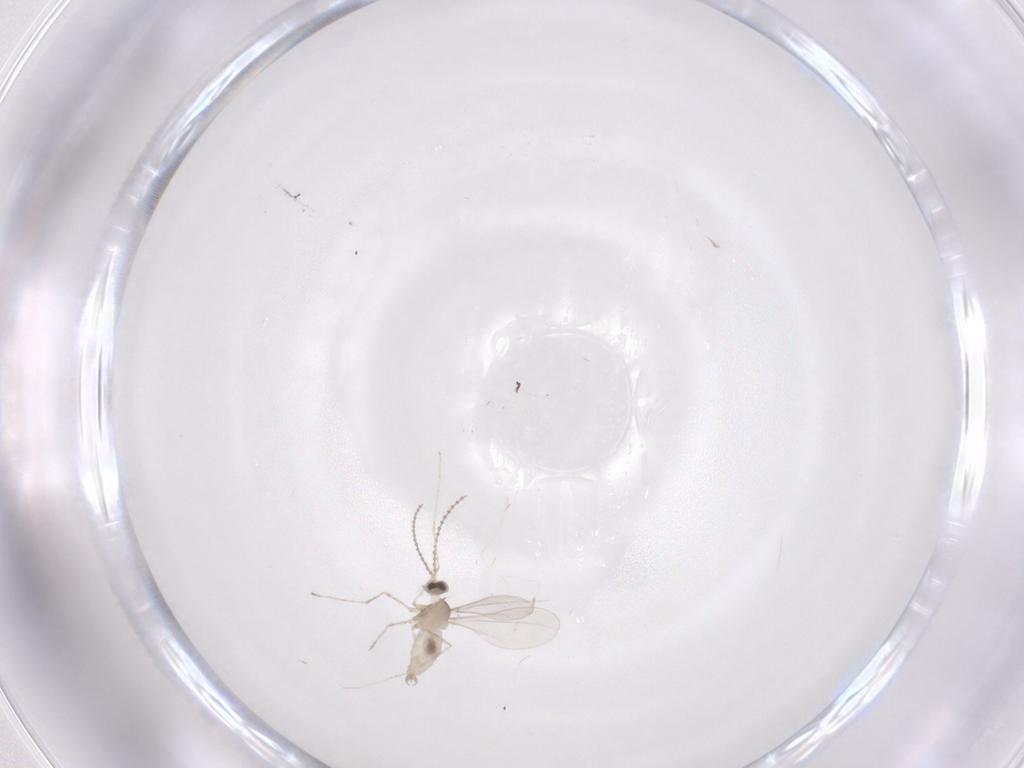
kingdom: Animalia
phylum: Arthropoda
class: Insecta
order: Diptera
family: Cecidomyiidae
